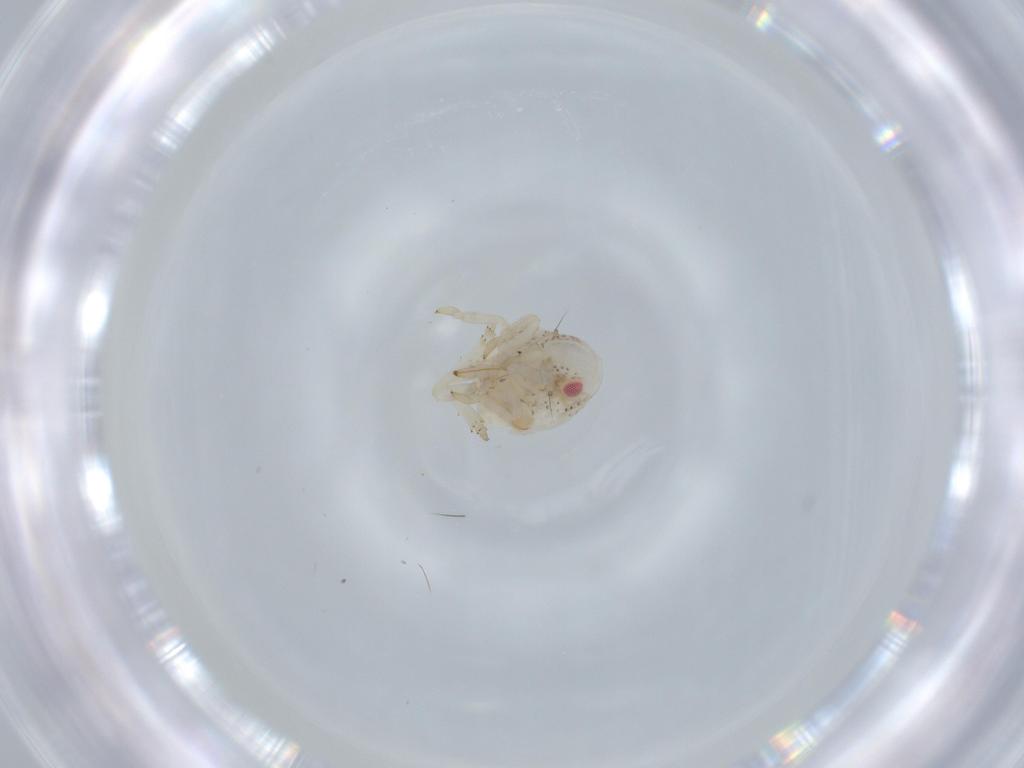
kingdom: Animalia
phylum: Arthropoda
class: Insecta
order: Hemiptera
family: Acanaloniidae
